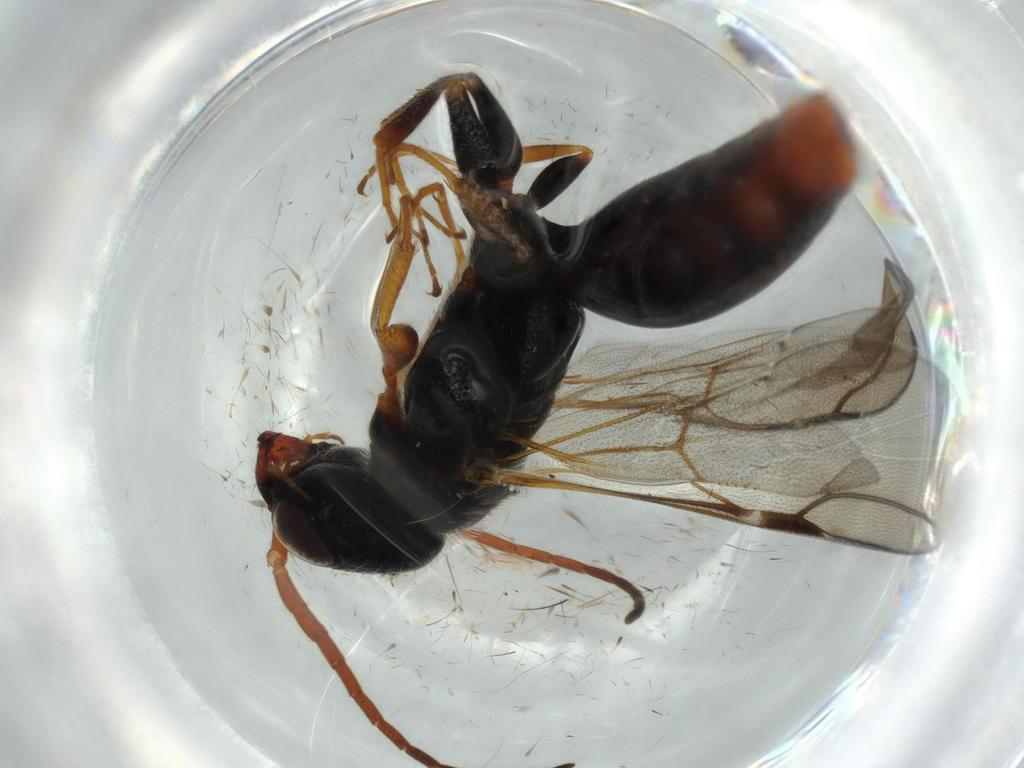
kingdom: Animalia
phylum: Arthropoda
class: Insecta
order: Hymenoptera
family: Bethylidae
